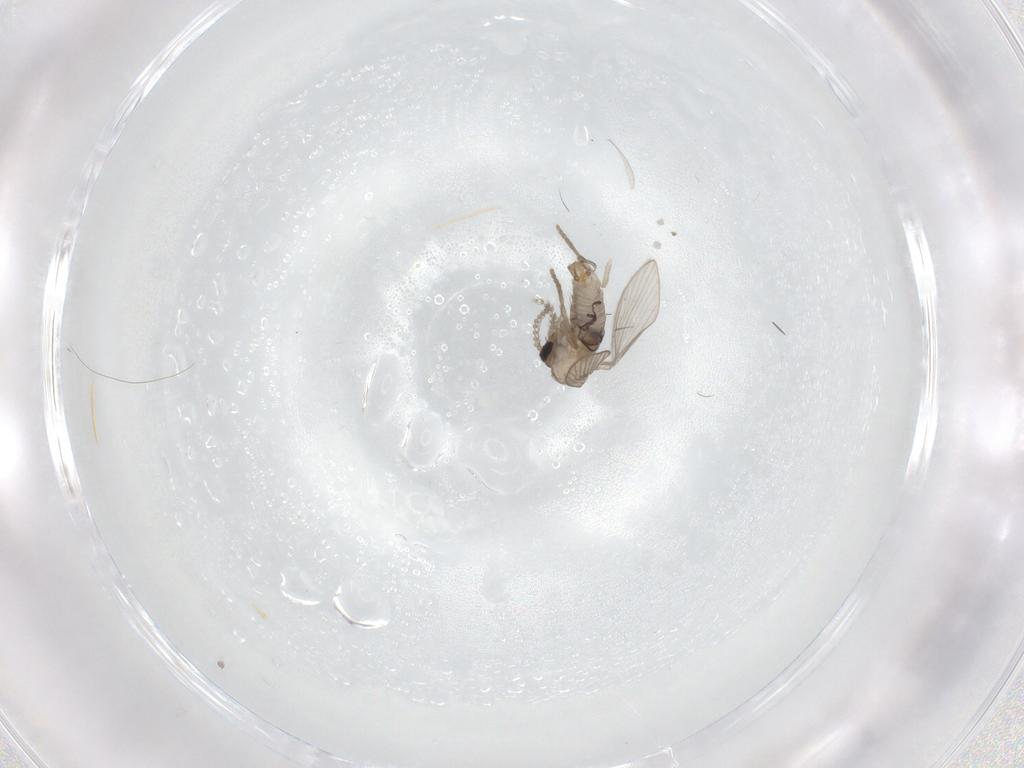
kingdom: Animalia
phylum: Arthropoda
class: Insecta
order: Diptera
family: Psychodidae
